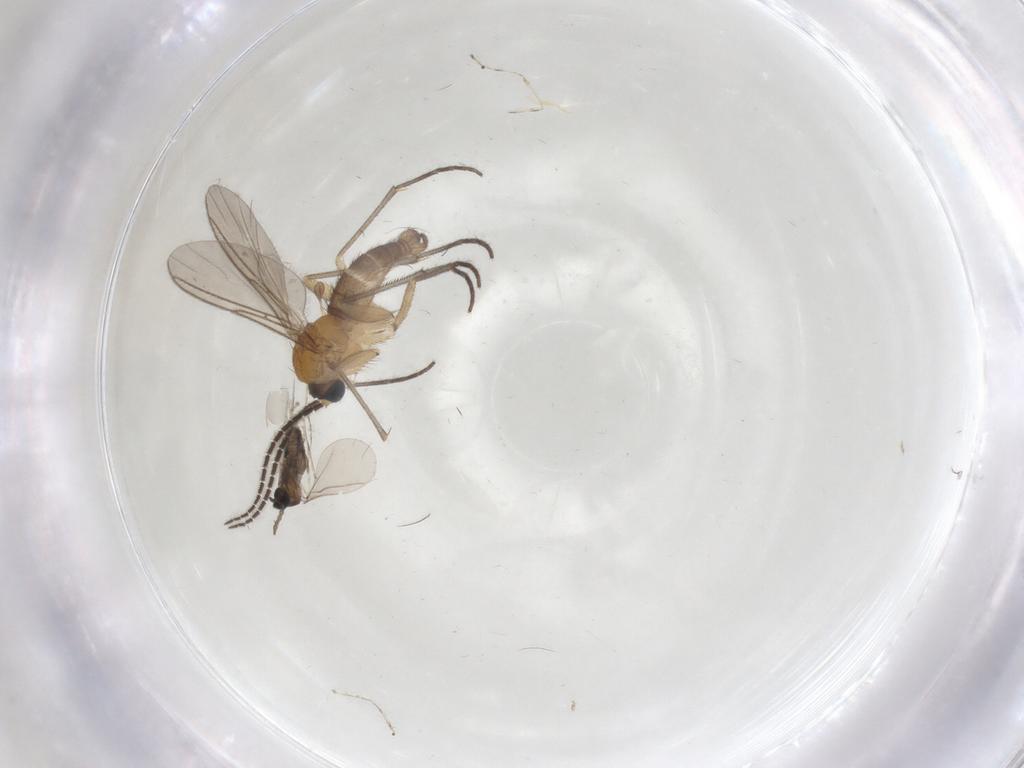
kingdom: Animalia
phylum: Arthropoda
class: Insecta
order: Diptera
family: Cecidomyiidae
